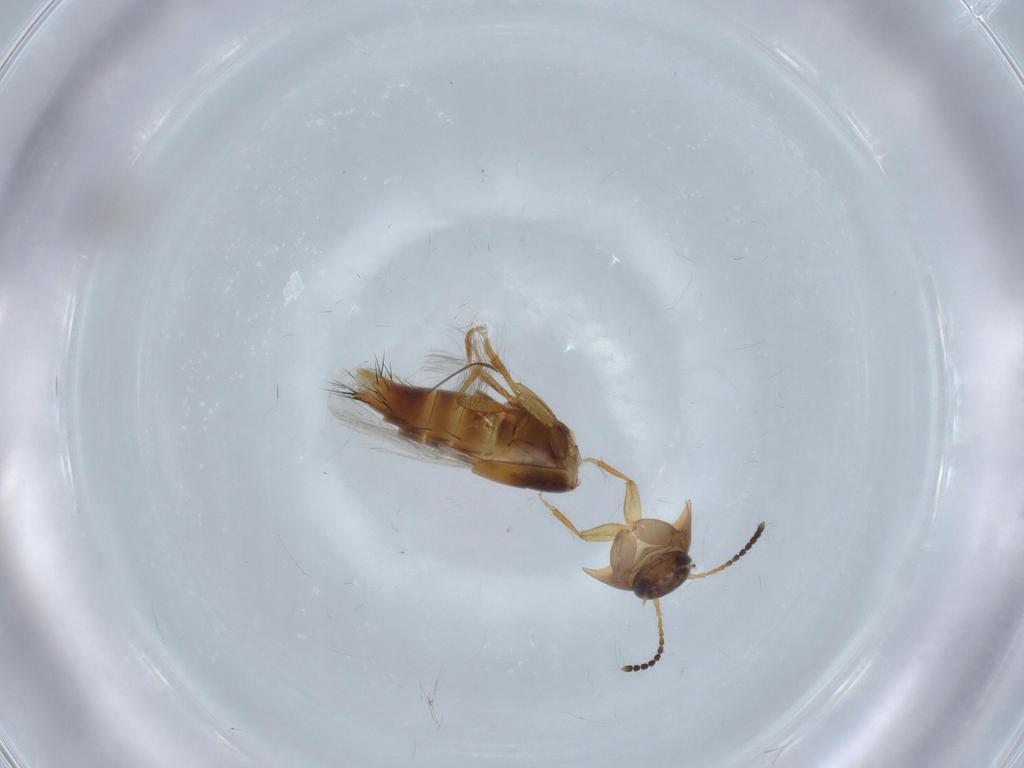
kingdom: Animalia
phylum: Arthropoda
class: Insecta
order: Coleoptera
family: Staphylinidae
